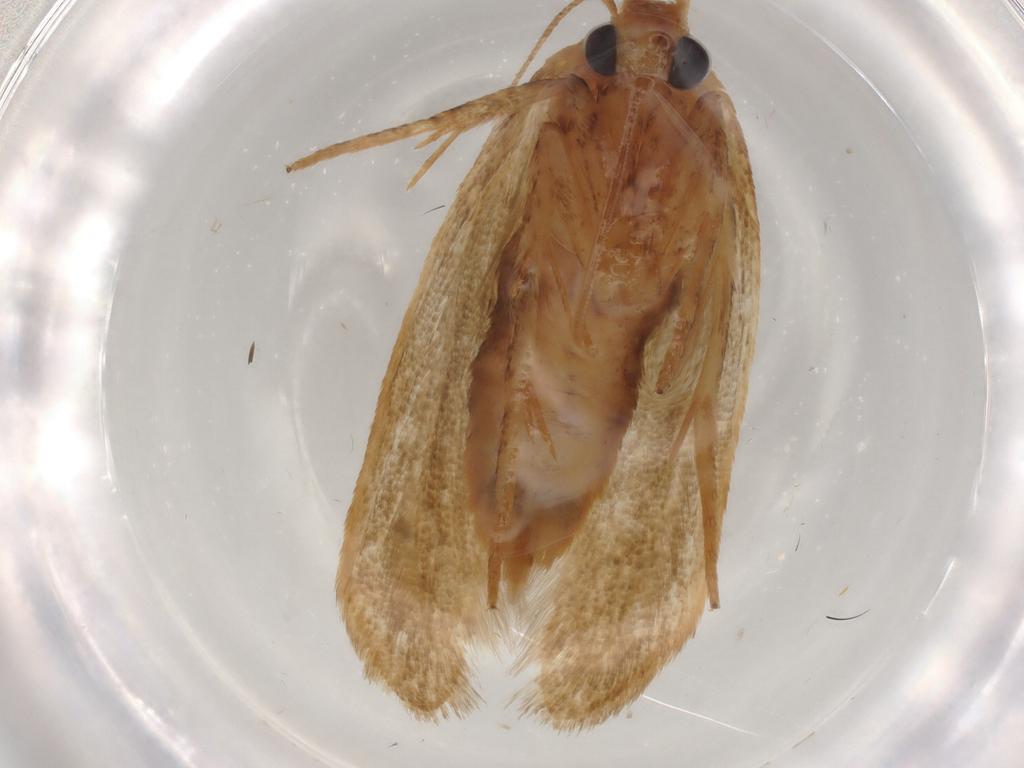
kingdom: Animalia
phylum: Arthropoda
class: Insecta
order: Lepidoptera
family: Blastobasidae
